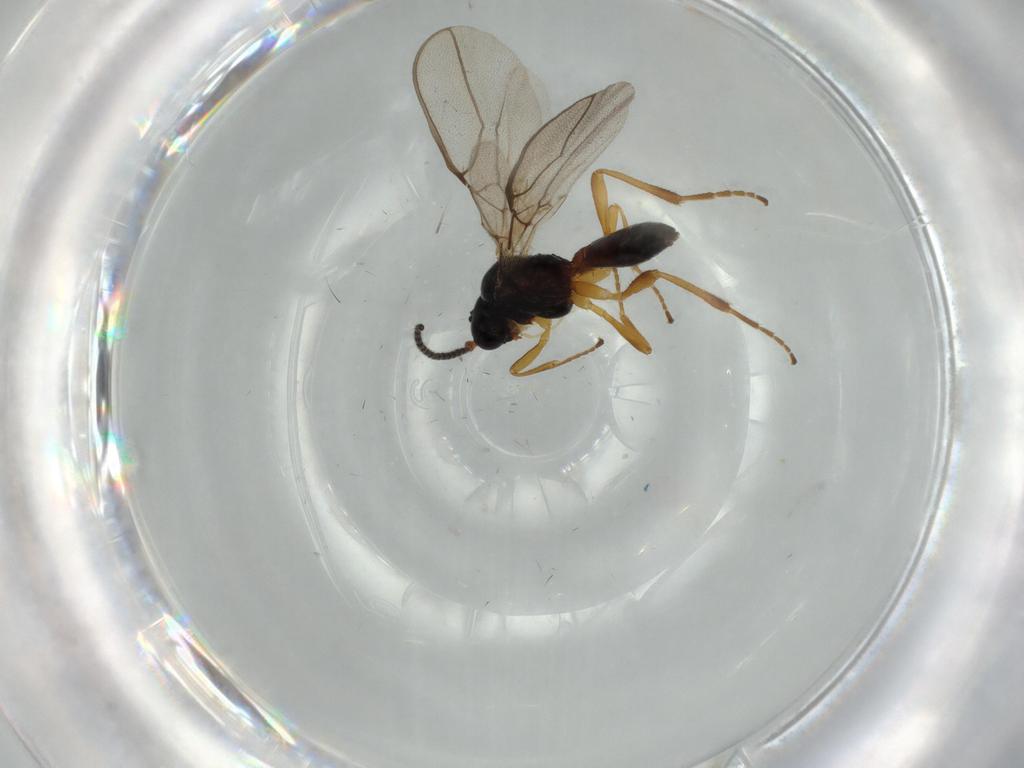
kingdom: Animalia
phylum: Arthropoda
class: Insecta
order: Hymenoptera
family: Braconidae
